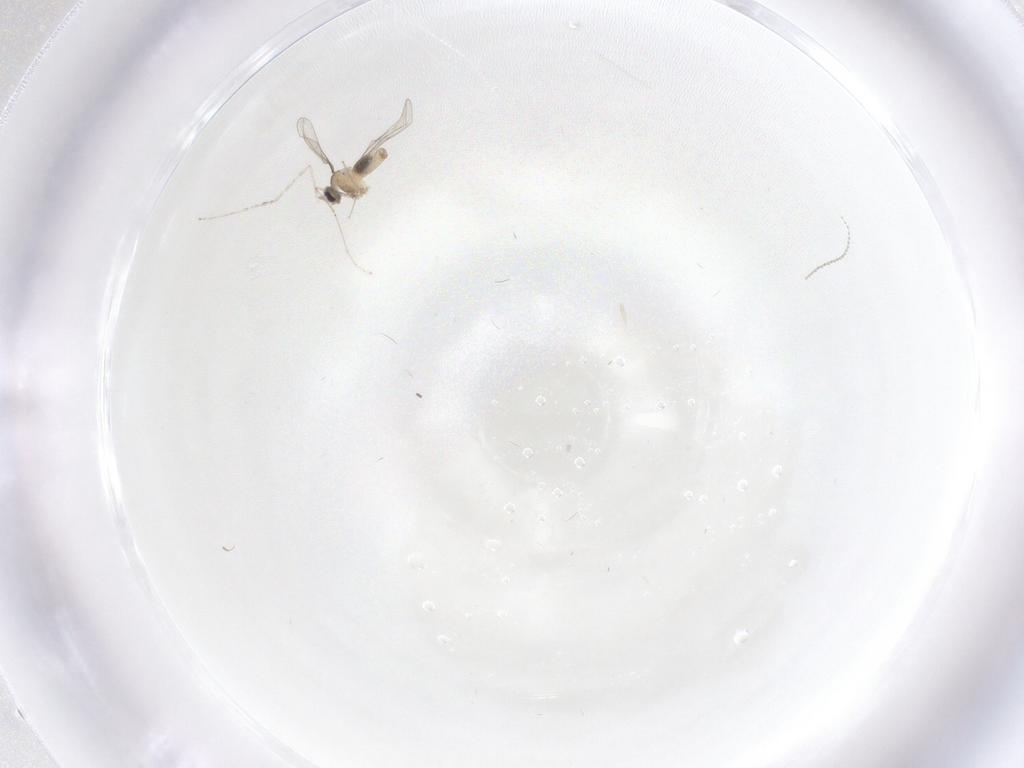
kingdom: Animalia
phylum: Arthropoda
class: Insecta
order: Diptera
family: Cecidomyiidae
